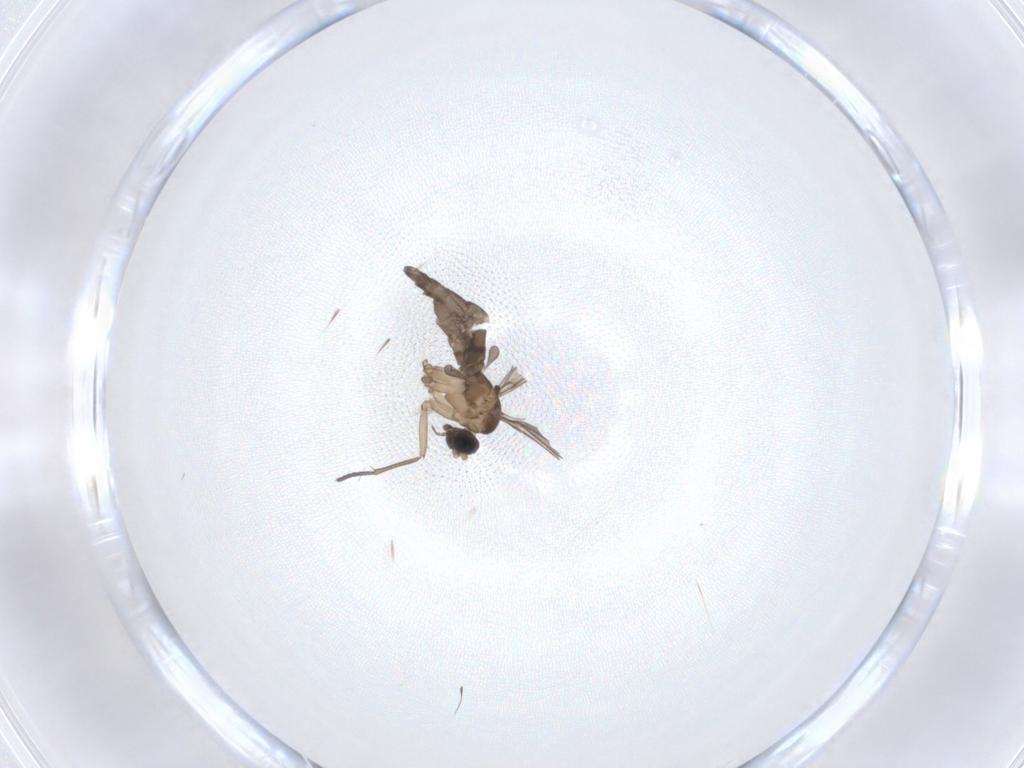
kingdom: Animalia
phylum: Arthropoda
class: Insecta
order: Diptera
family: Sciaridae
